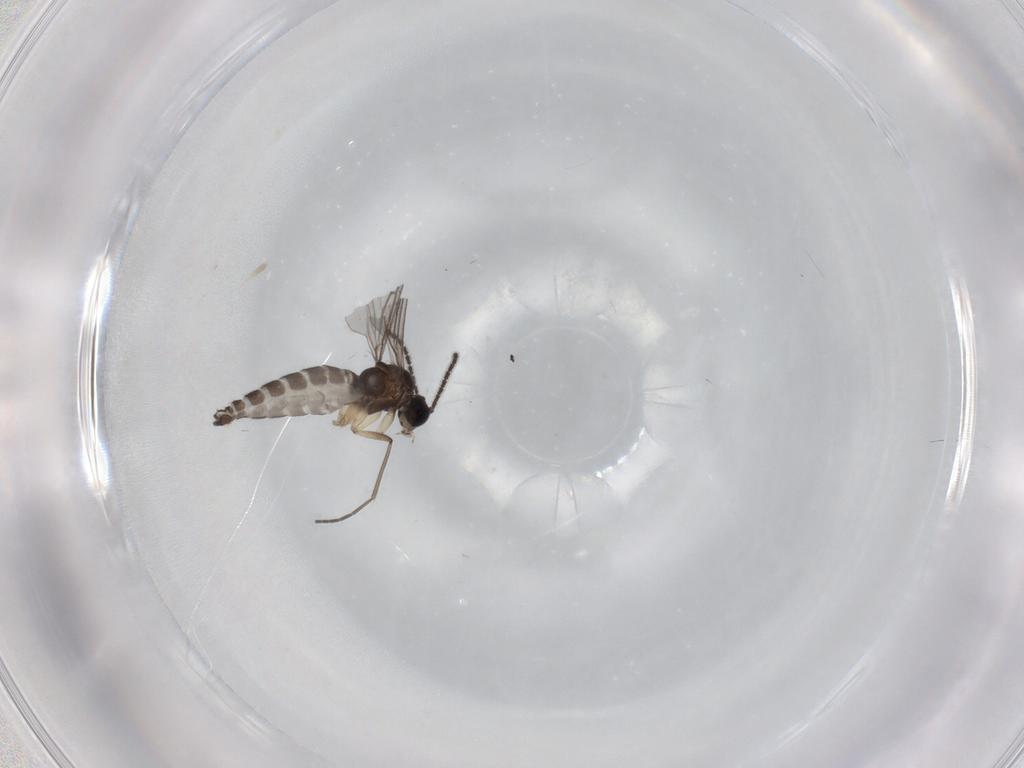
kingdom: Animalia
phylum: Arthropoda
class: Insecta
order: Diptera
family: Sciaridae
